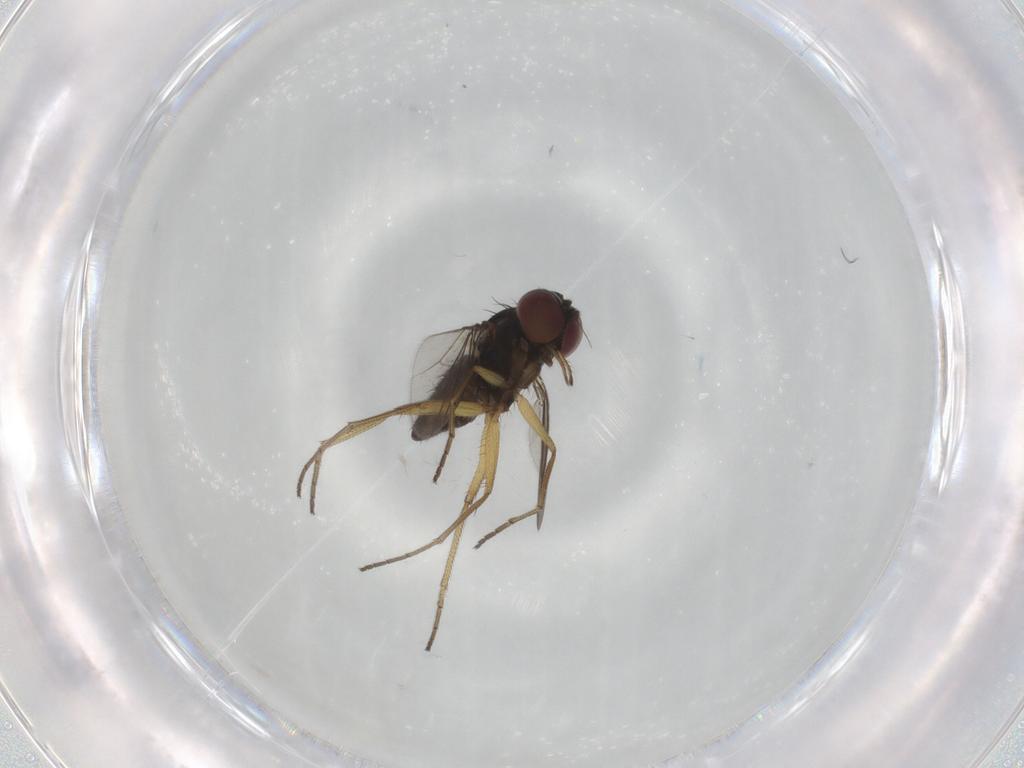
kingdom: Animalia
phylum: Arthropoda
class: Insecta
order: Diptera
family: Dolichopodidae
